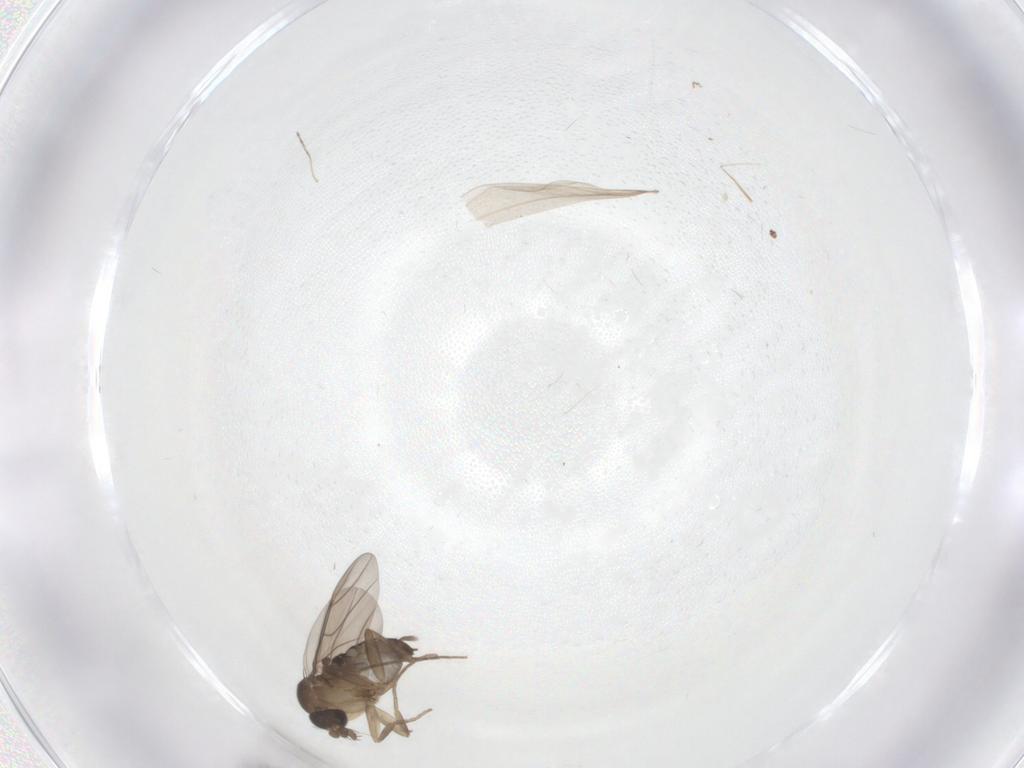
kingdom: Animalia
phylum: Arthropoda
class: Insecta
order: Diptera
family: Phoridae
